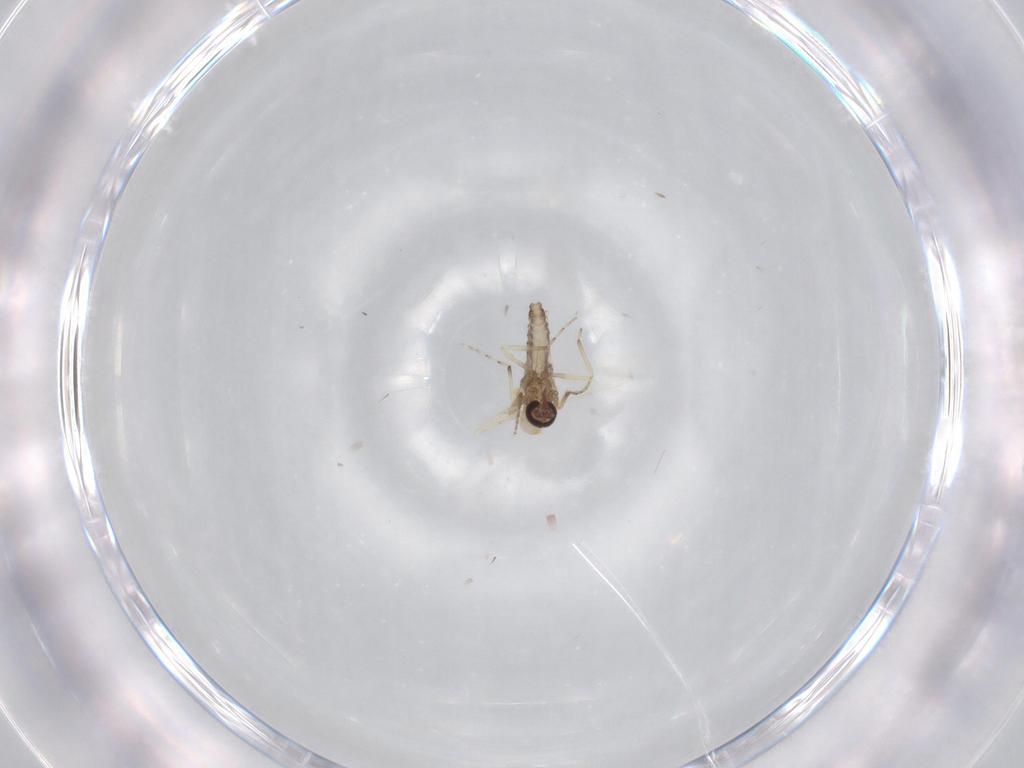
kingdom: Animalia
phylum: Arthropoda
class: Insecta
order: Diptera
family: Ceratopogonidae
